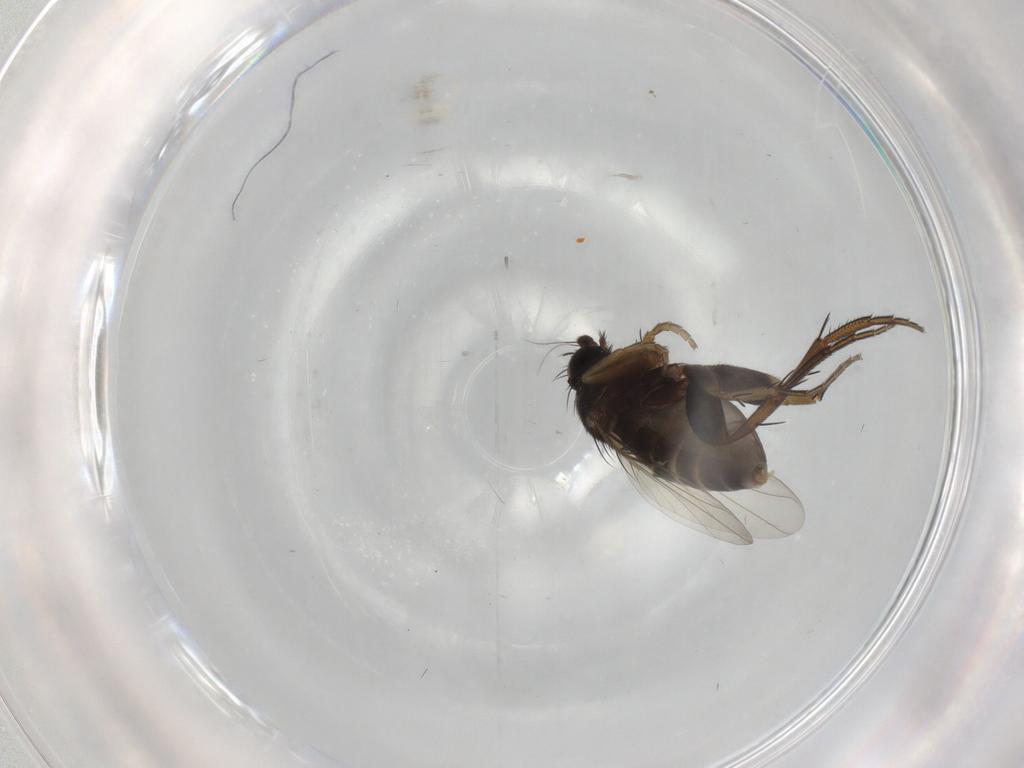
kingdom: Animalia
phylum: Arthropoda
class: Insecta
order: Diptera
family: Phoridae
